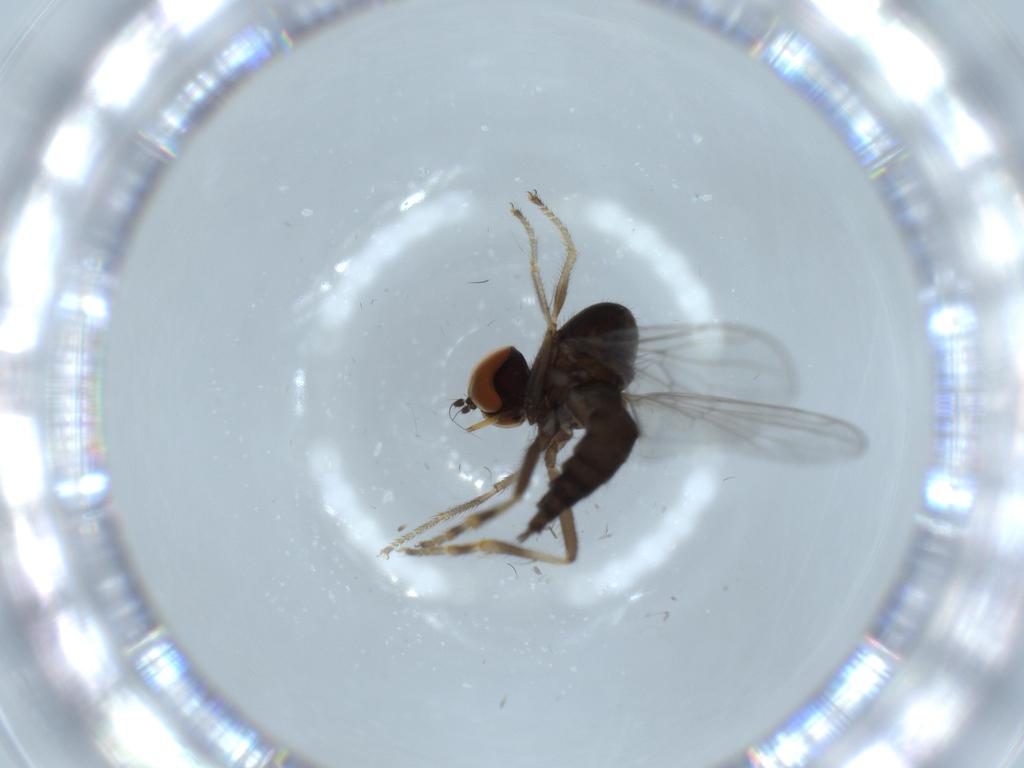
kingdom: Animalia
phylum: Arthropoda
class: Insecta
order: Diptera
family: Hybotidae
